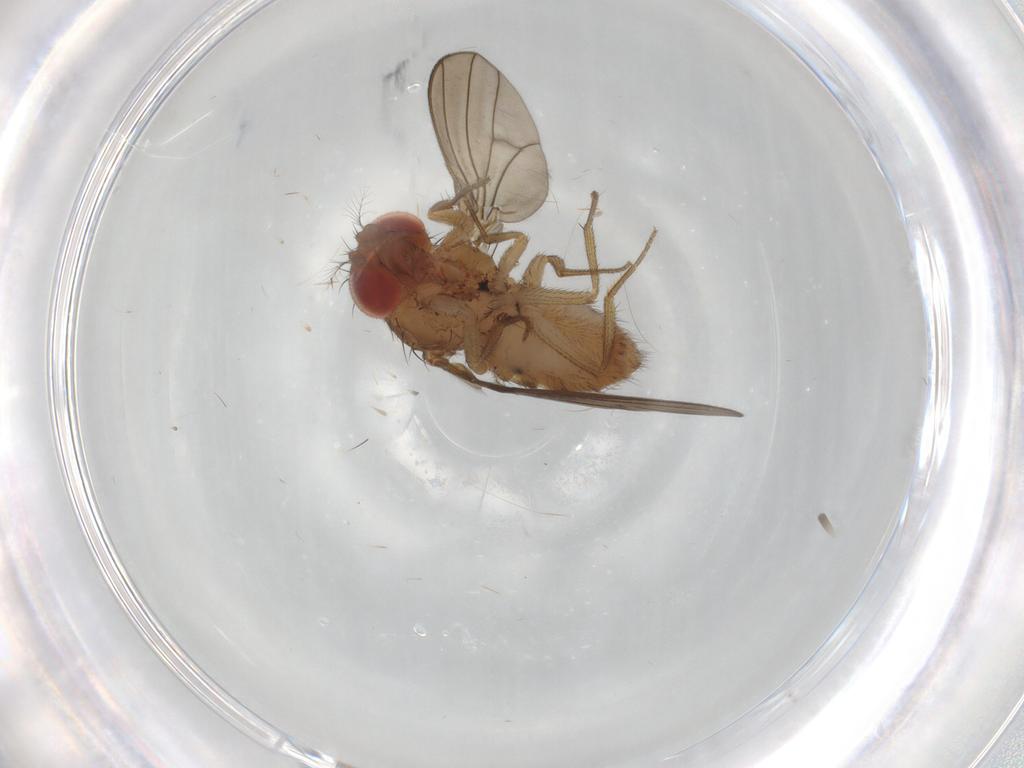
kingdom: Animalia
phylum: Arthropoda
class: Insecta
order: Diptera
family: Drosophilidae
